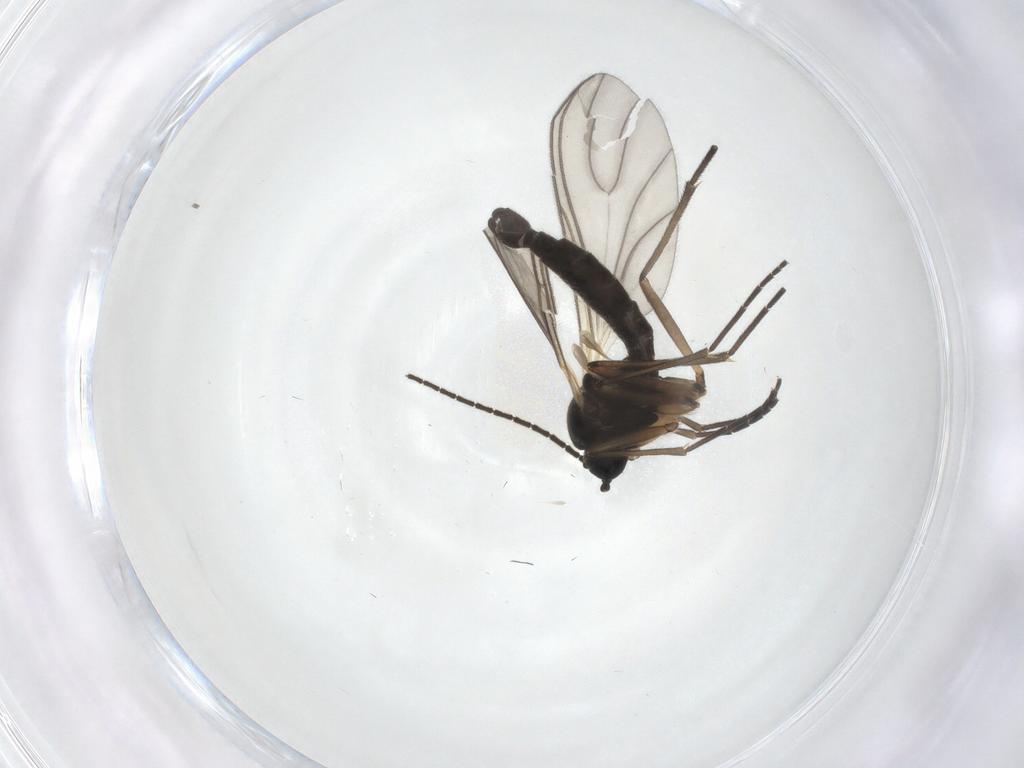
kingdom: Animalia
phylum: Arthropoda
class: Insecta
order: Diptera
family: Sciaridae
